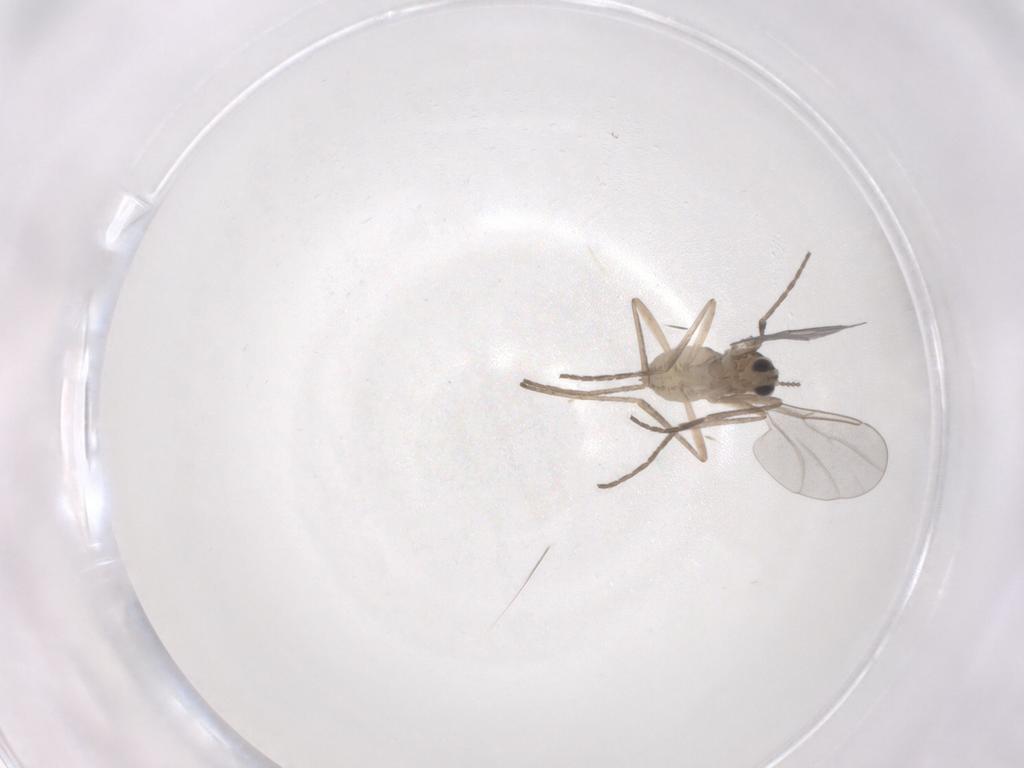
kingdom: Animalia
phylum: Arthropoda
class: Insecta
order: Diptera
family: Cecidomyiidae
